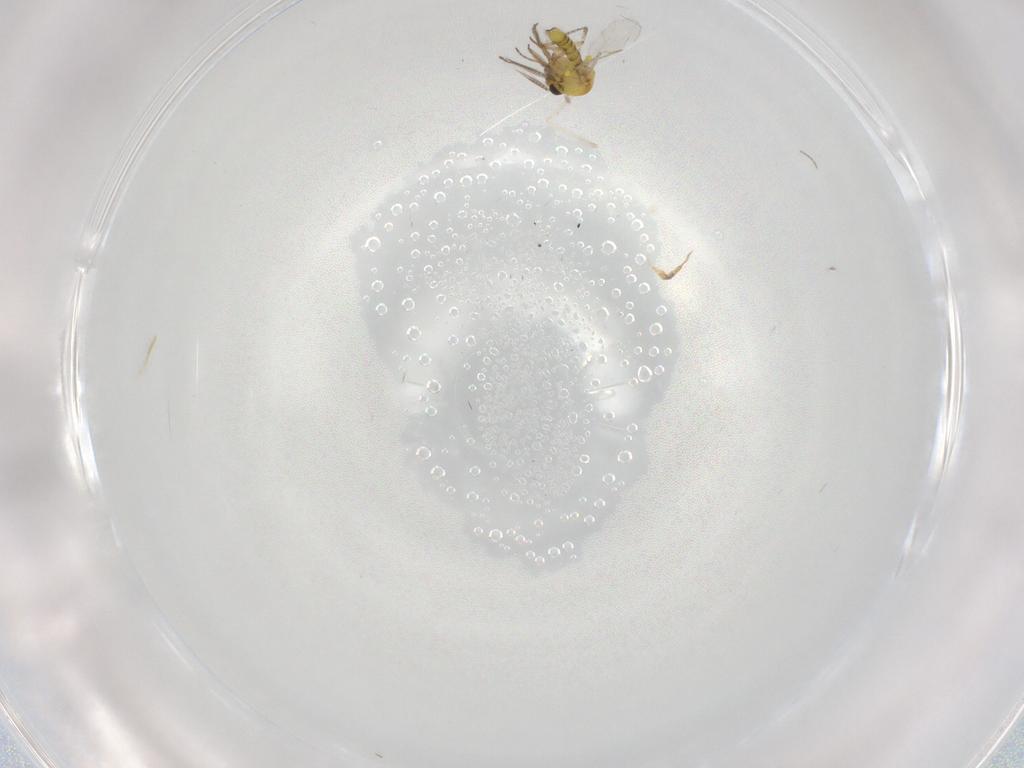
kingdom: Animalia
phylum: Arthropoda
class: Insecta
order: Diptera
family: Ceratopogonidae
